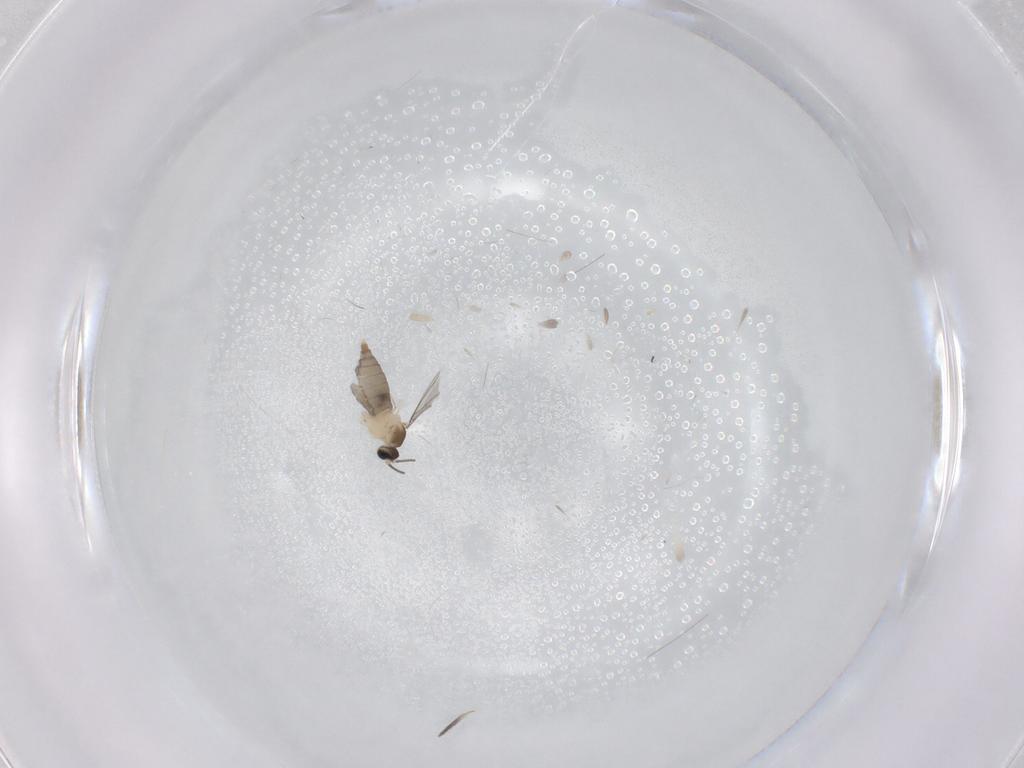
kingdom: Animalia
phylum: Arthropoda
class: Insecta
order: Diptera
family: Cecidomyiidae
